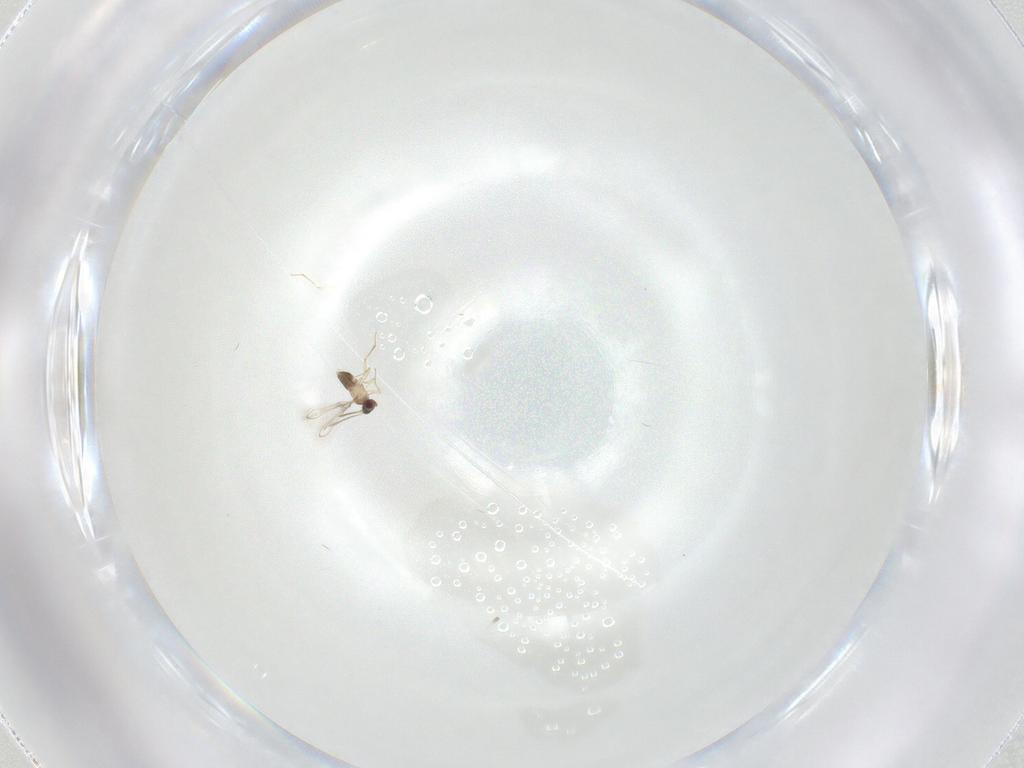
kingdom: Animalia
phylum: Arthropoda
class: Insecta
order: Hymenoptera
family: Mymaridae
